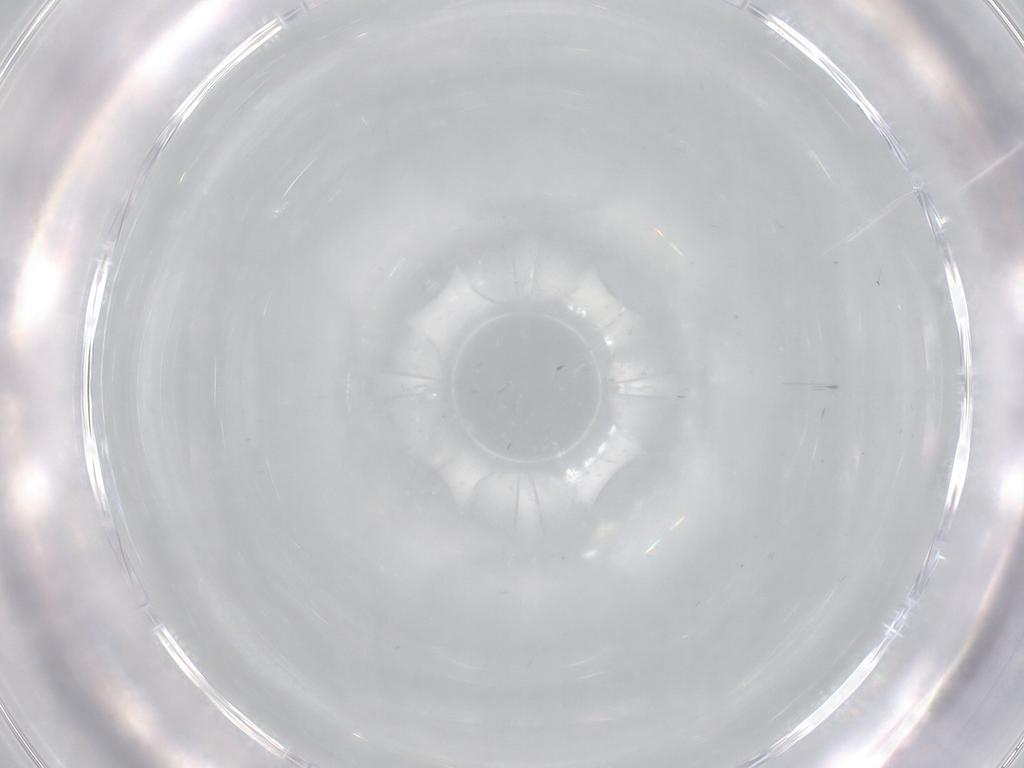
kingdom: Animalia
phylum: Arthropoda
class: Insecta
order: Diptera
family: Tipulidae
